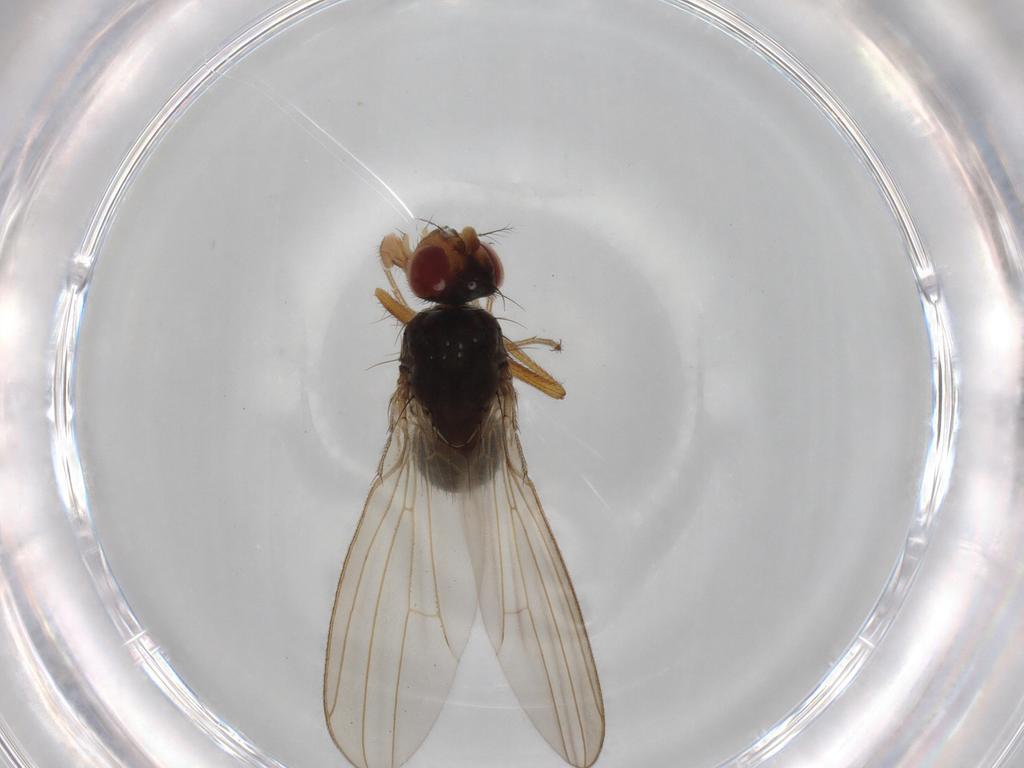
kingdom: Animalia
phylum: Arthropoda
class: Insecta
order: Diptera
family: Drosophilidae
